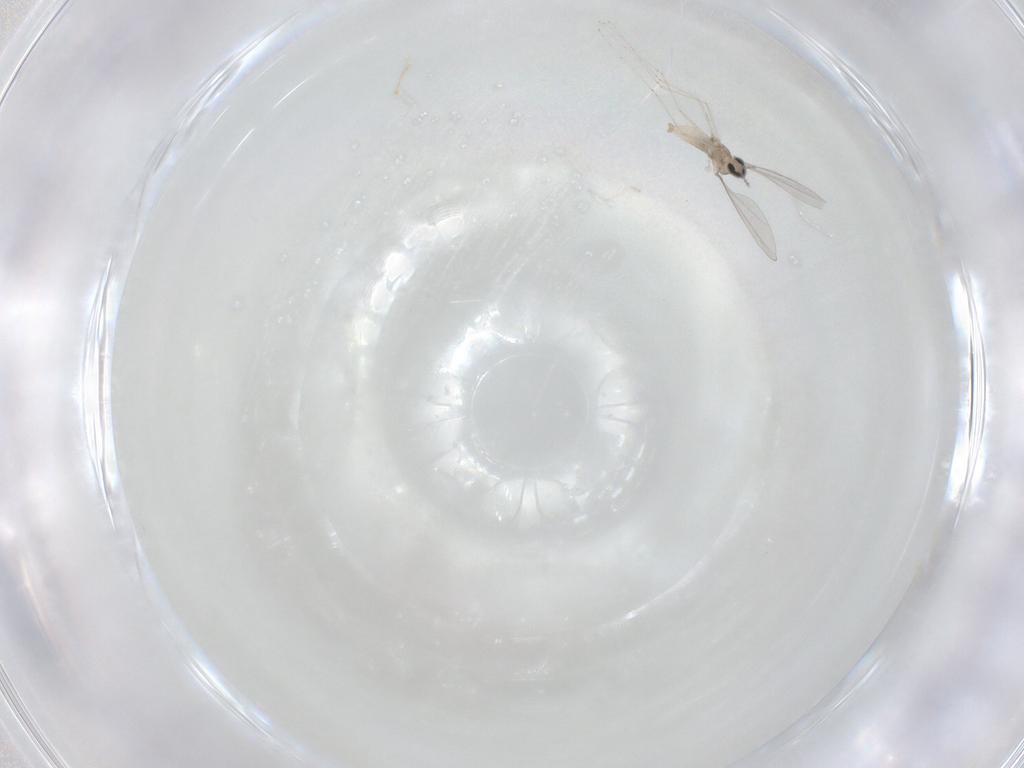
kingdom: Animalia
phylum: Arthropoda
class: Insecta
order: Diptera
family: Cecidomyiidae
